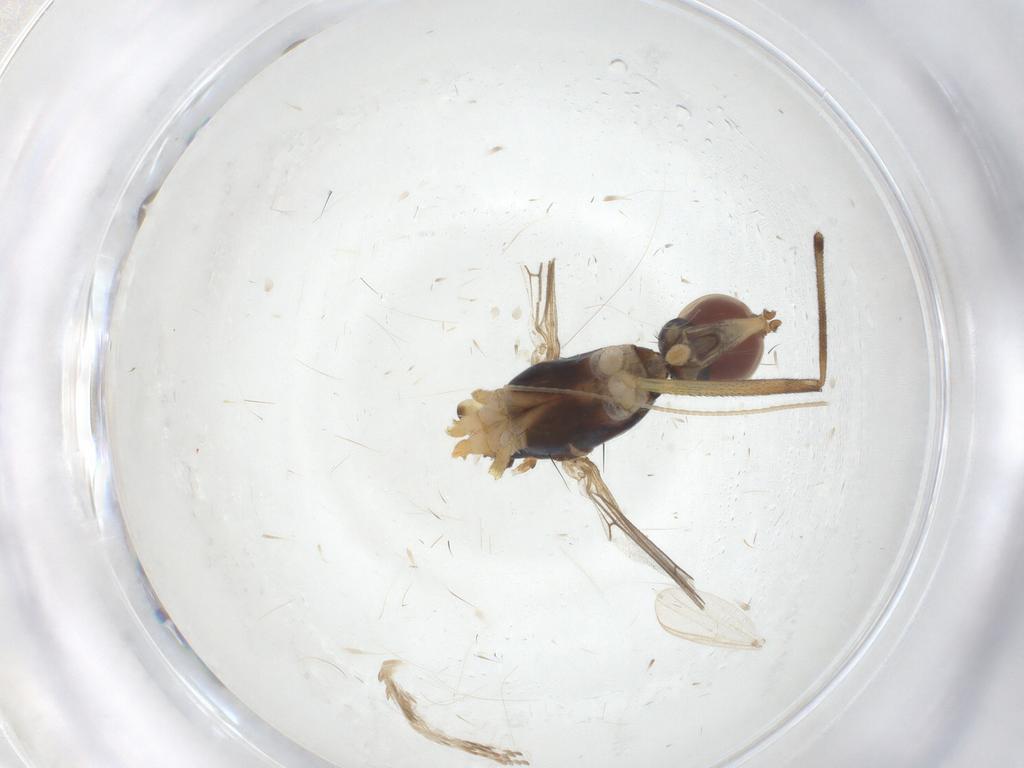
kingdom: Animalia
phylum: Arthropoda
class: Insecta
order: Diptera
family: Micropezidae
